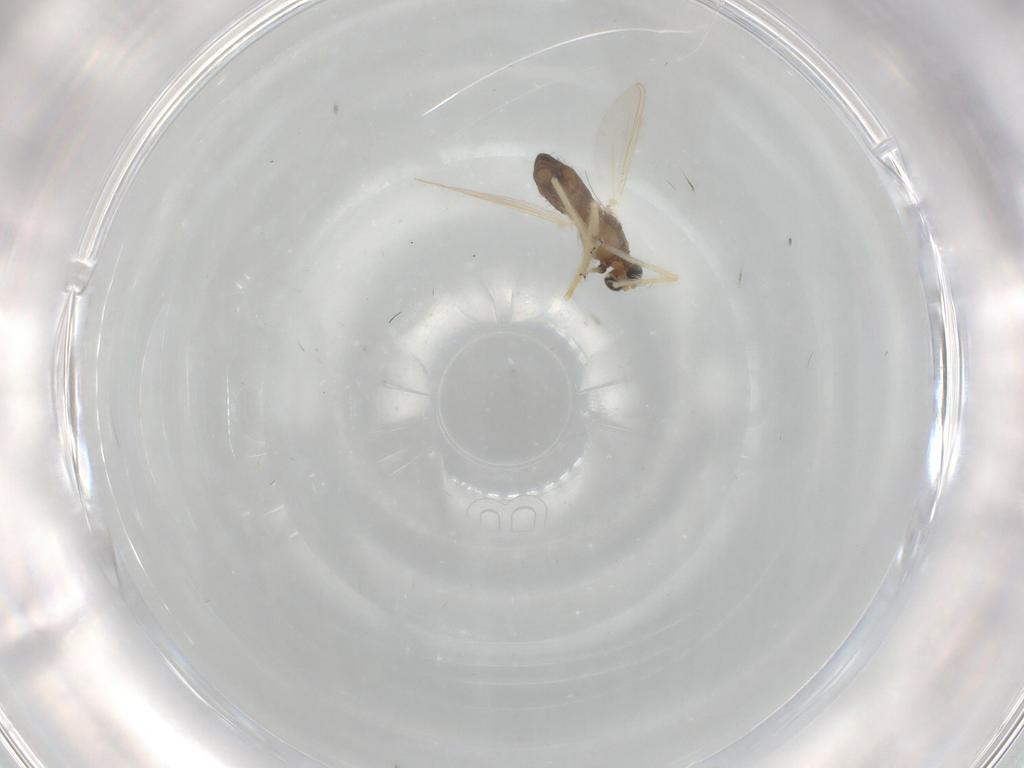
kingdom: Animalia
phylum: Arthropoda
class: Insecta
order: Diptera
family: Chironomidae
